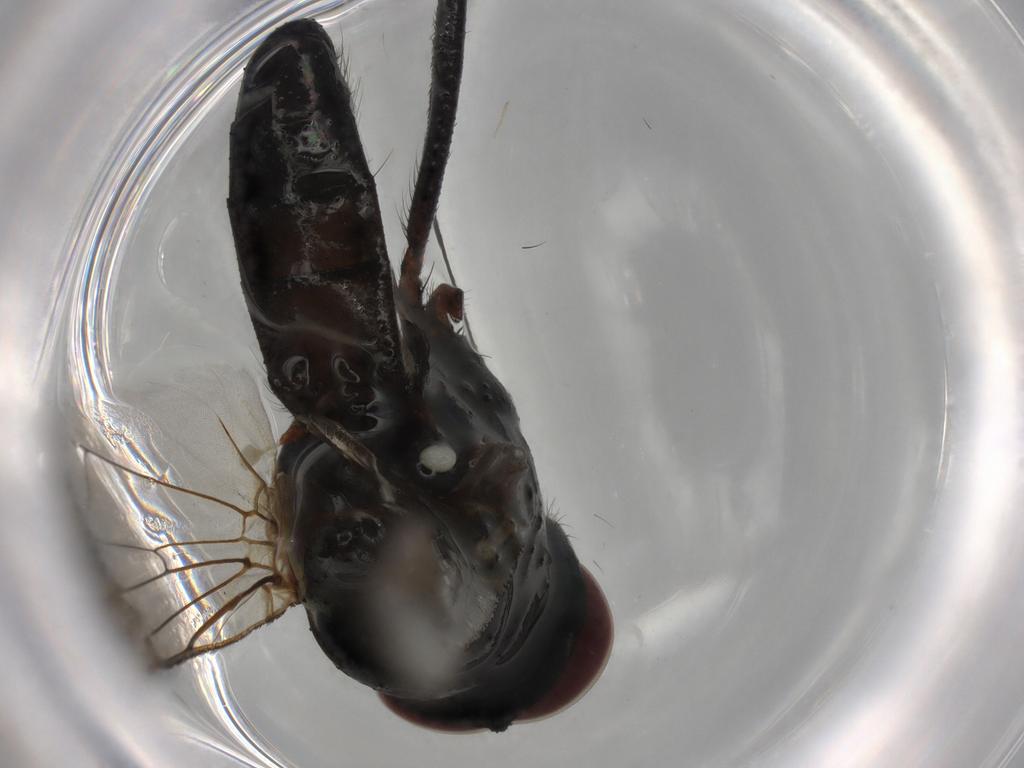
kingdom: Animalia
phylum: Arthropoda
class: Insecta
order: Diptera
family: Anthomyiidae
